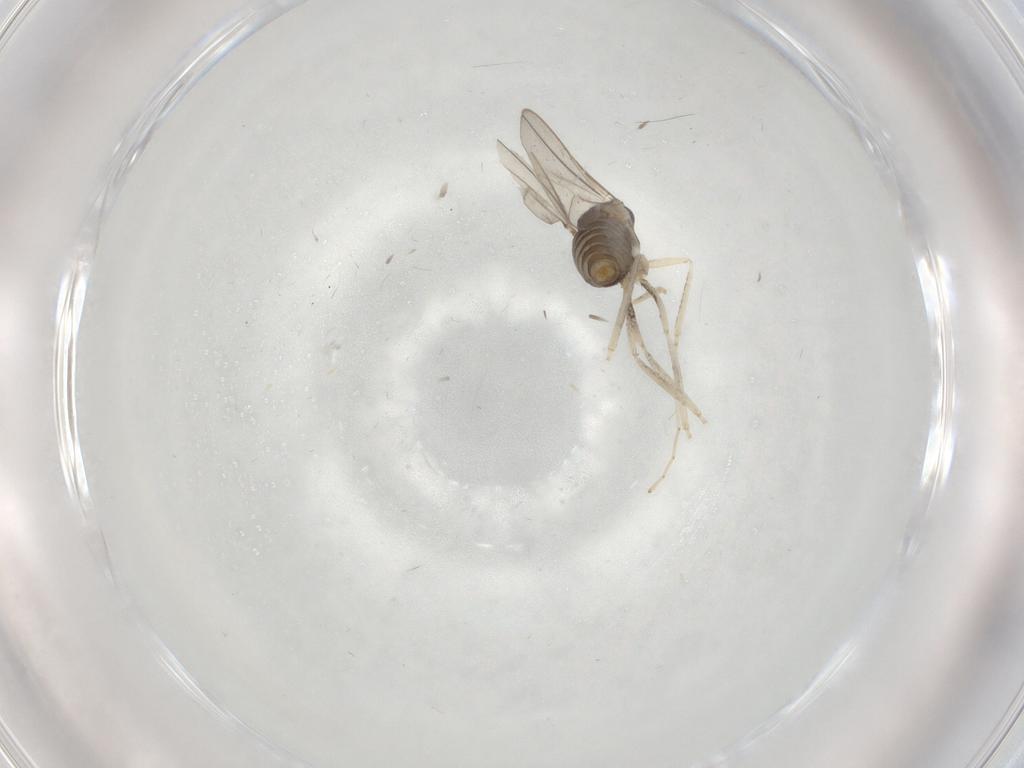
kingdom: Animalia
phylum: Arthropoda
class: Insecta
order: Diptera
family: Cecidomyiidae
